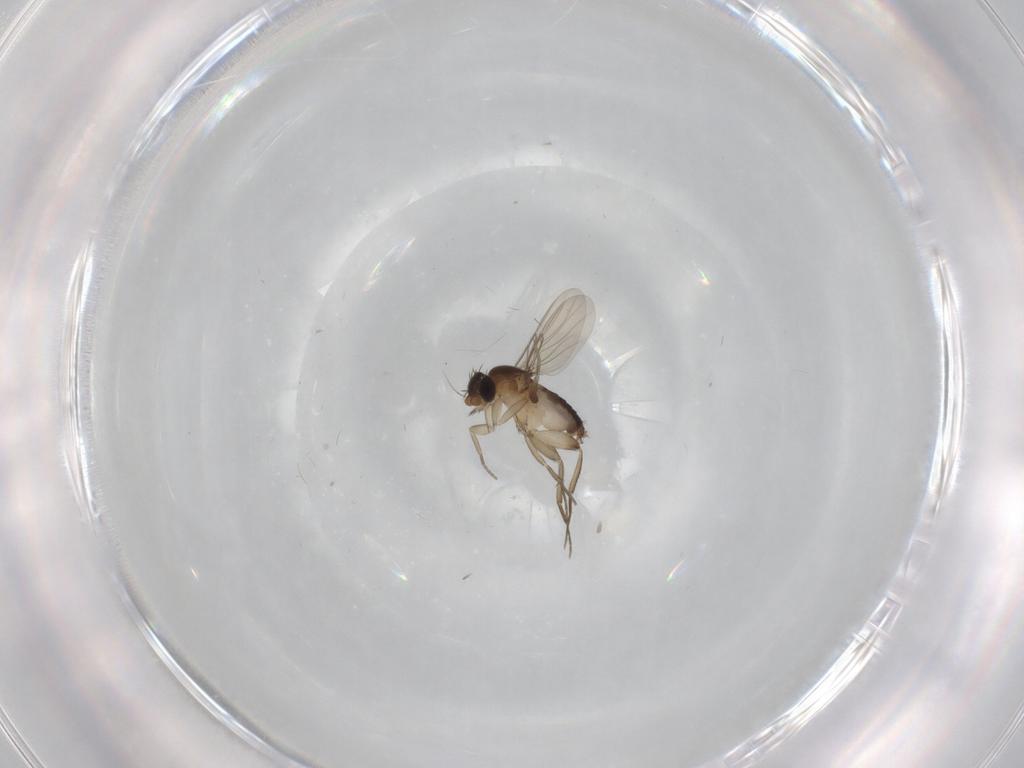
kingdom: Animalia
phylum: Arthropoda
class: Insecta
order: Diptera
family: Phoridae
